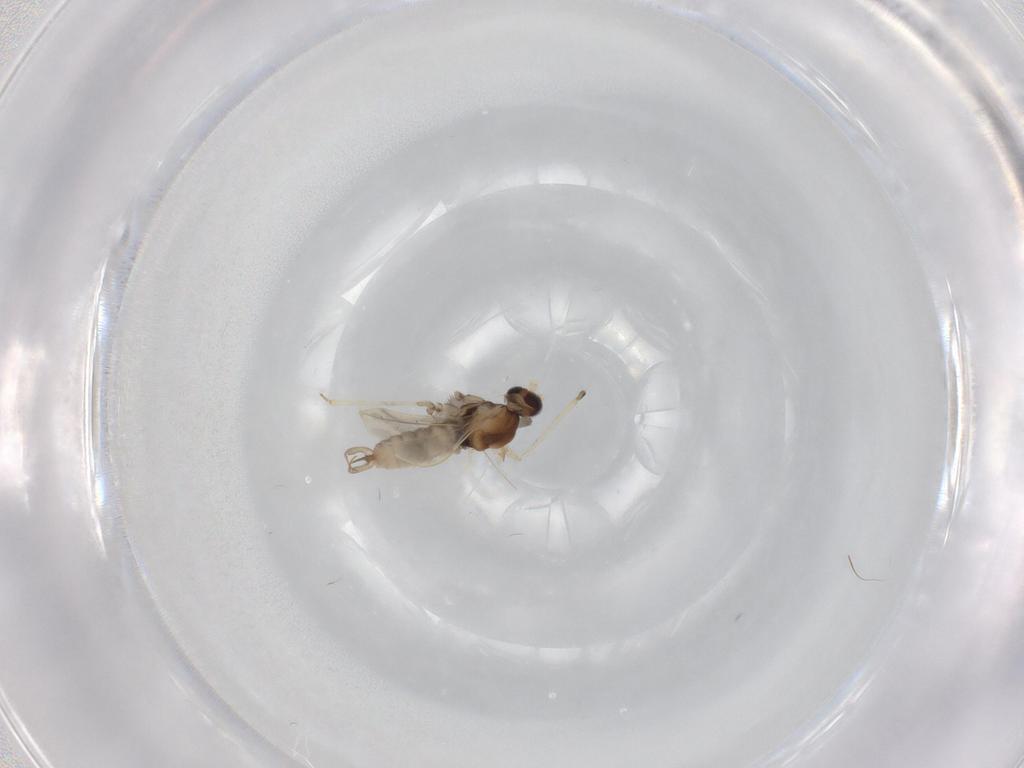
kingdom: Animalia
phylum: Arthropoda
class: Insecta
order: Diptera
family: Cecidomyiidae
